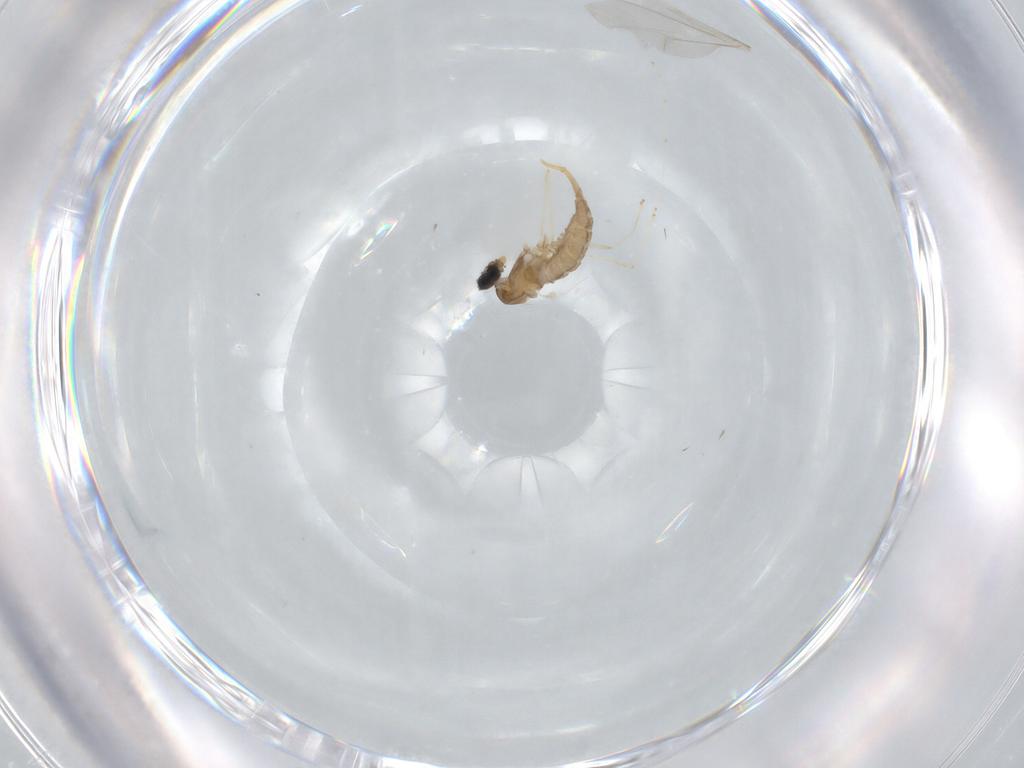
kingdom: Animalia
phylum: Arthropoda
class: Insecta
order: Diptera
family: Cecidomyiidae
